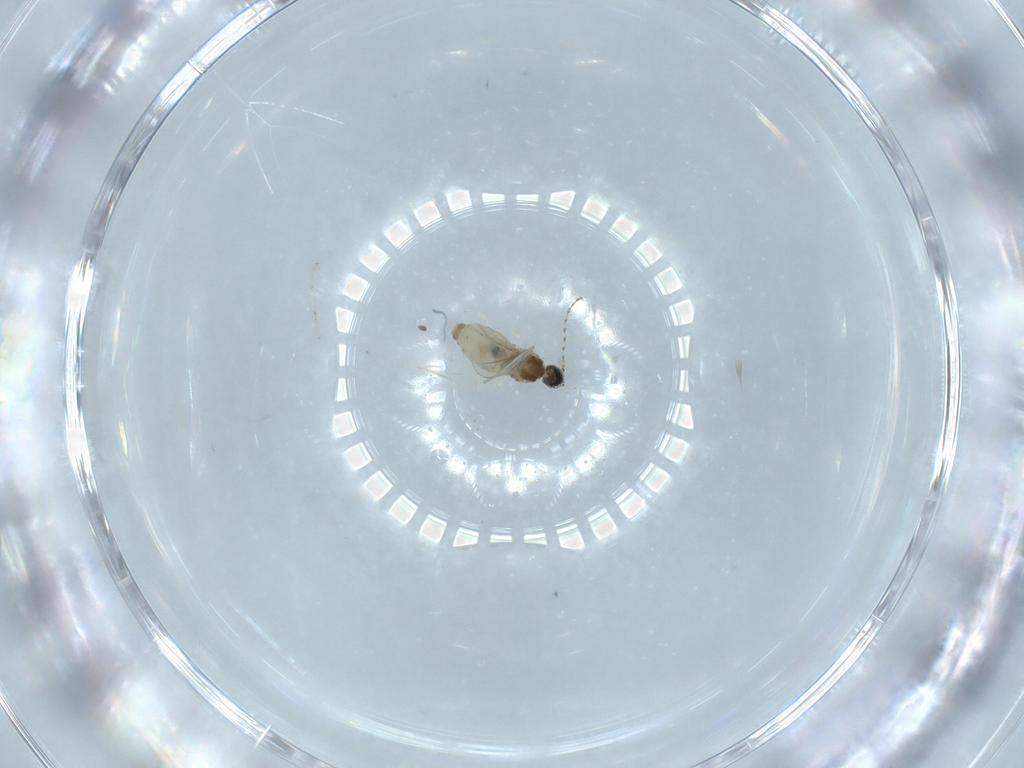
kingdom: Animalia
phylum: Arthropoda
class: Insecta
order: Diptera
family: Cecidomyiidae
